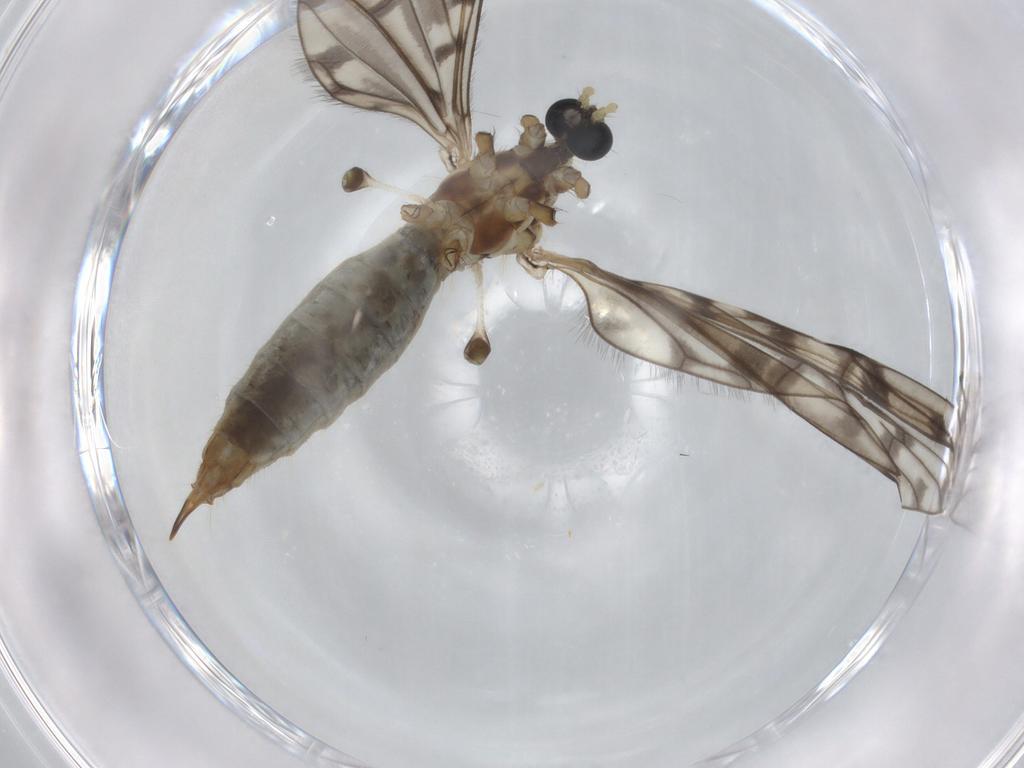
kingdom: Animalia
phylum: Arthropoda
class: Insecta
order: Diptera
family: Ceratopogonidae
